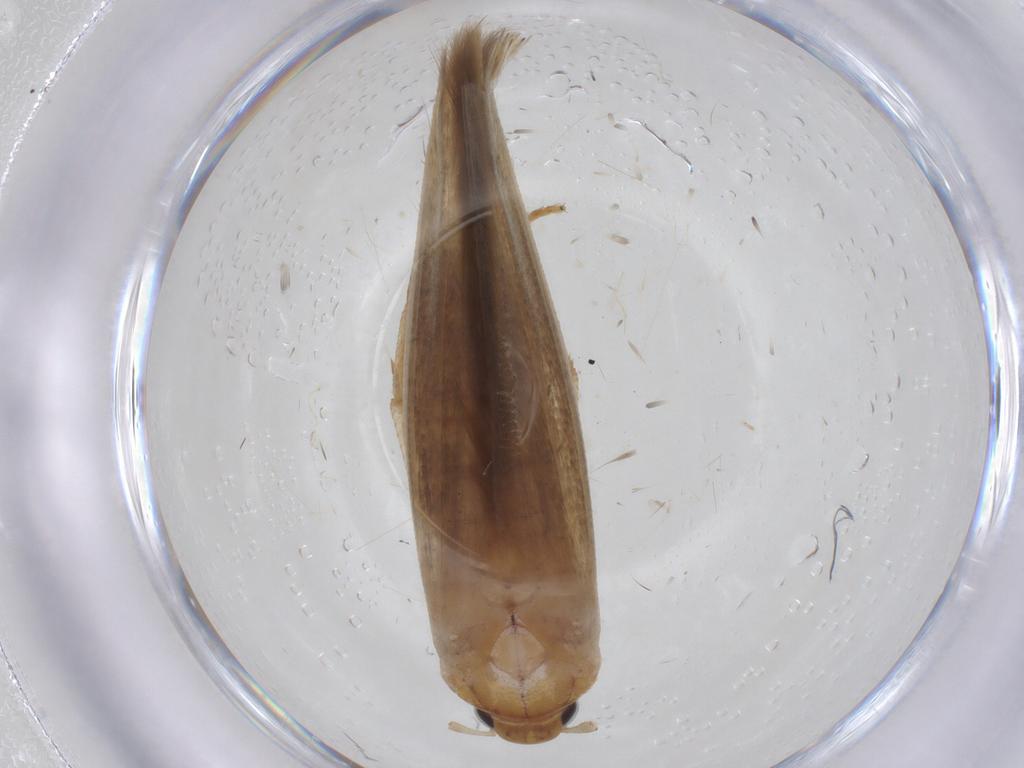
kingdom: Animalia
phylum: Arthropoda
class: Insecta
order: Lepidoptera
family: Stathmopodidae
